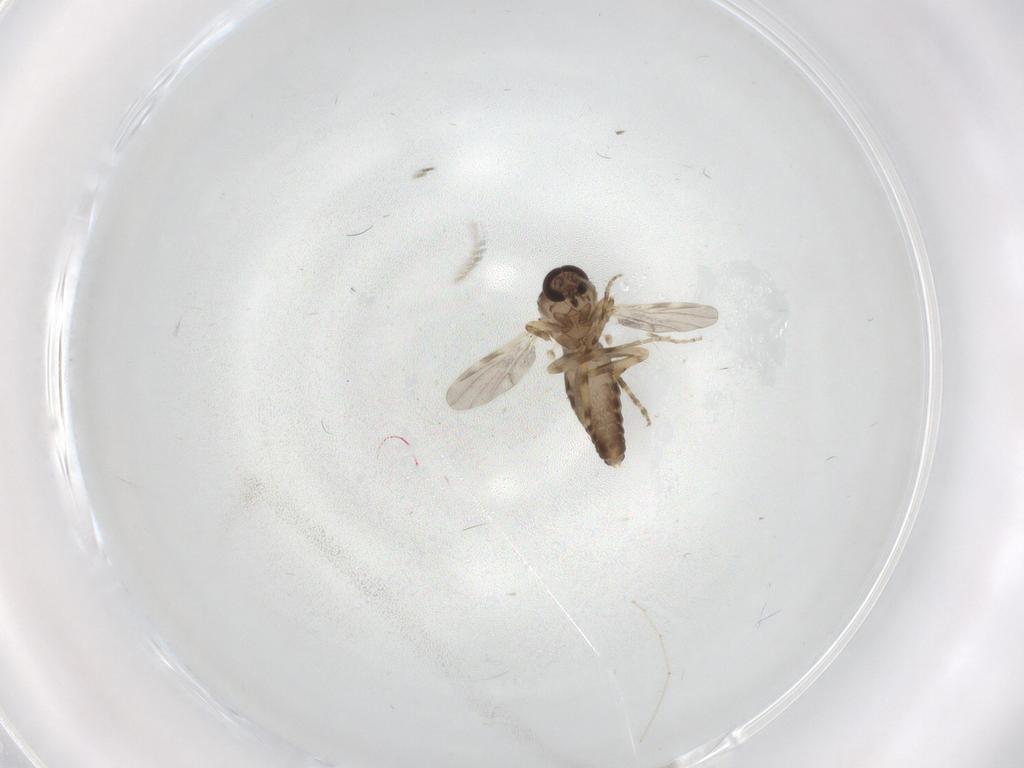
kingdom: Animalia
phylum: Arthropoda
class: Insecta
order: Diptera
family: Ceratopogonidae
